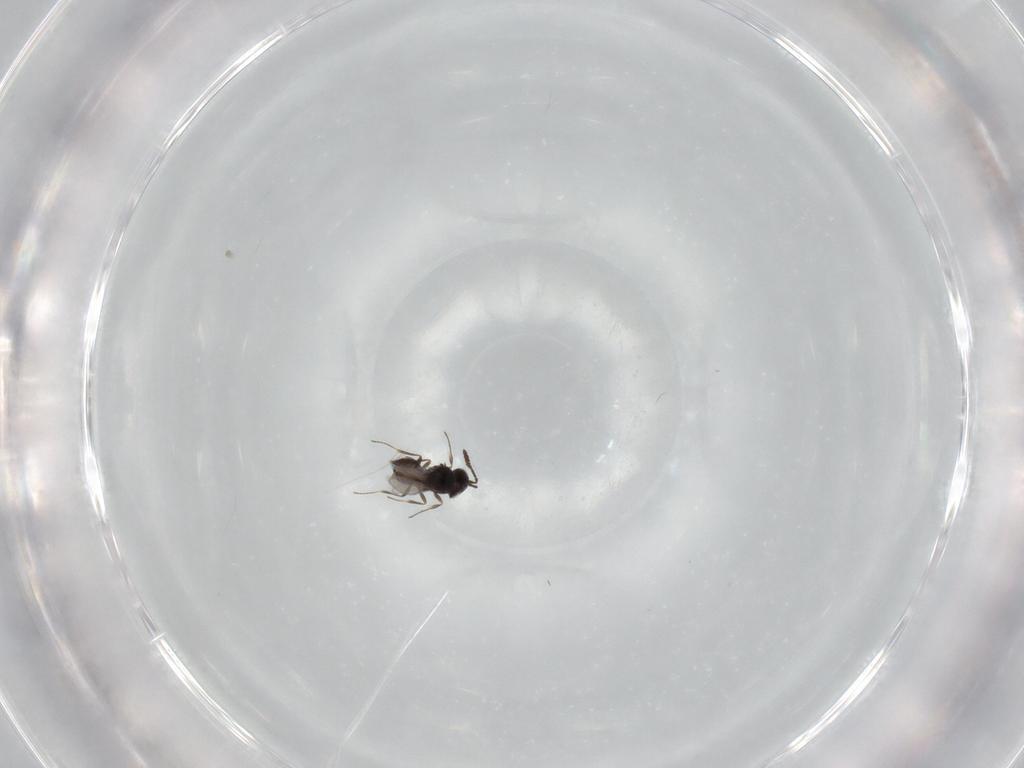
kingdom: Animalia
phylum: Arthropoda
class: Insecta
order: Hymenoptera
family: Scelionidae
